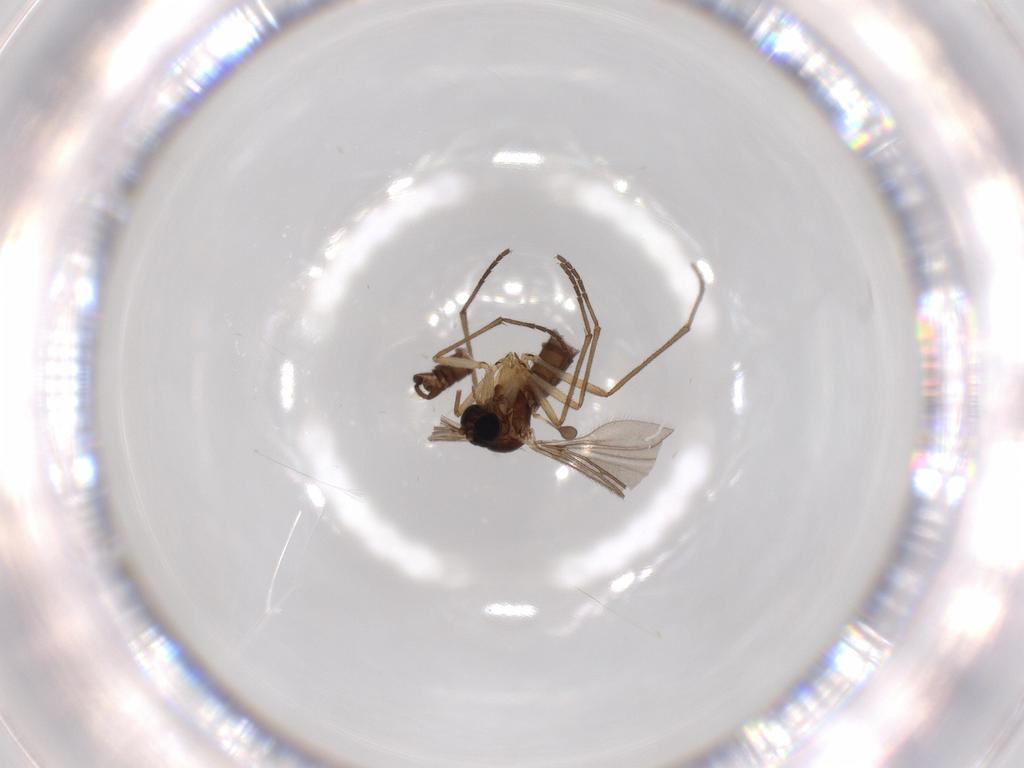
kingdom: Animalia
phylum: Arthropoda
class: Insecta
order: Diptera
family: Sciaridae
